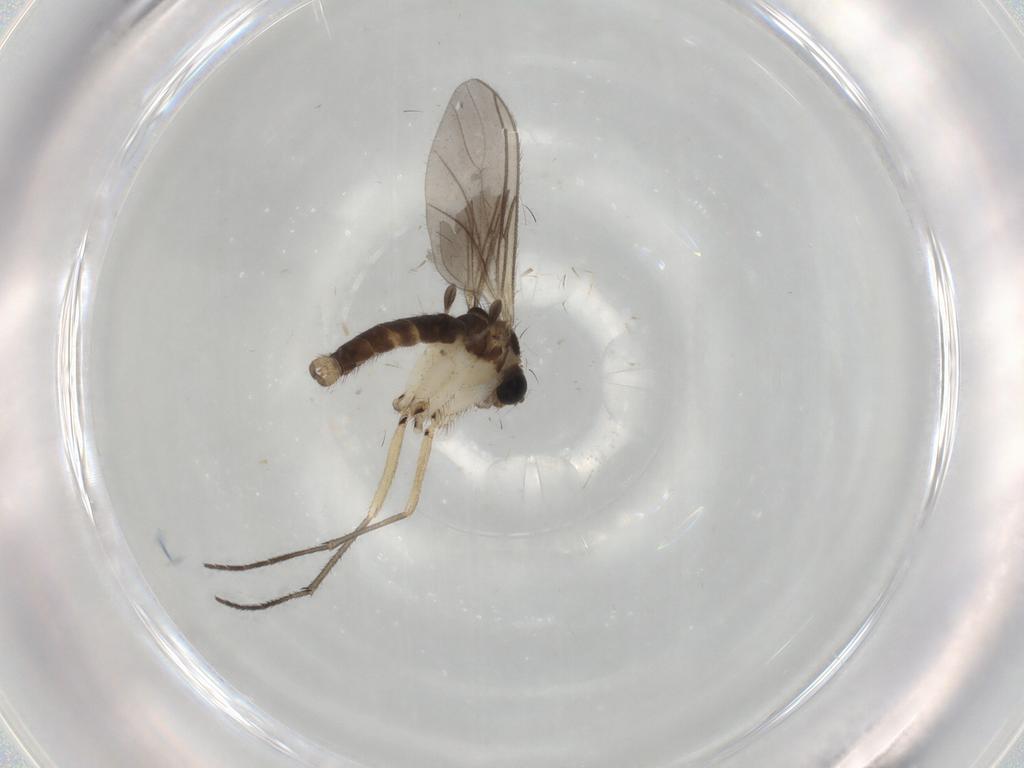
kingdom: Animalia
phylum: Arthropoda
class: Insecta
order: Diptera
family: Sciaridae
